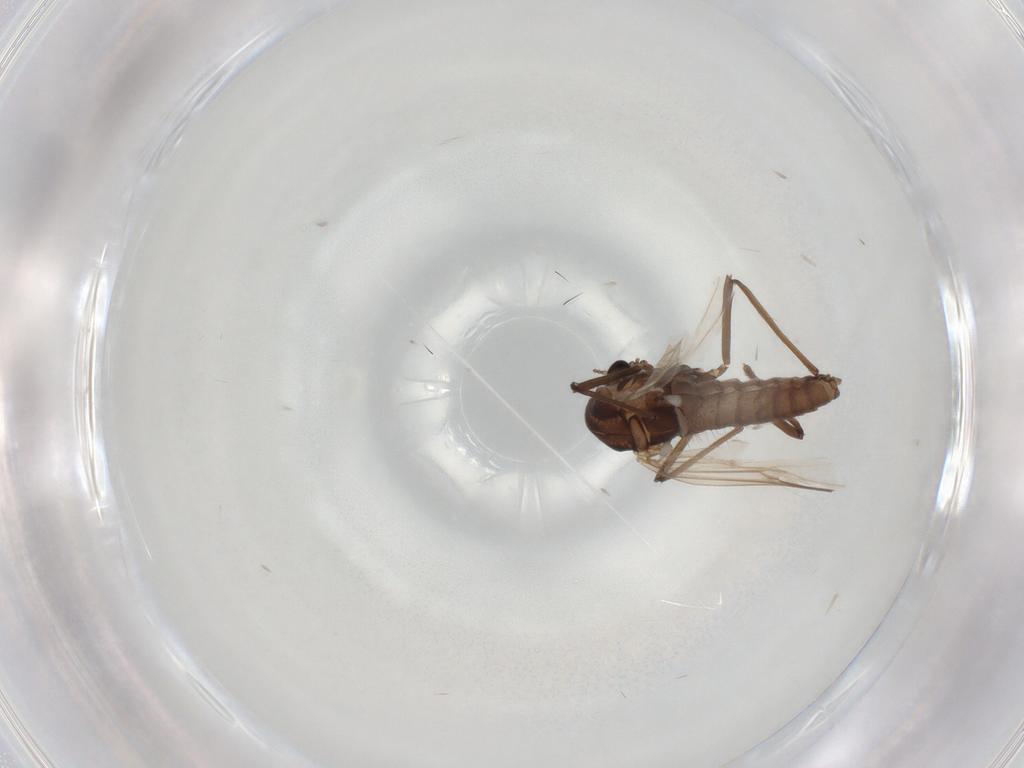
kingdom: Animalia
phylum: Arthropoda
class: Insecta
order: Diptera
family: Chironomidae
